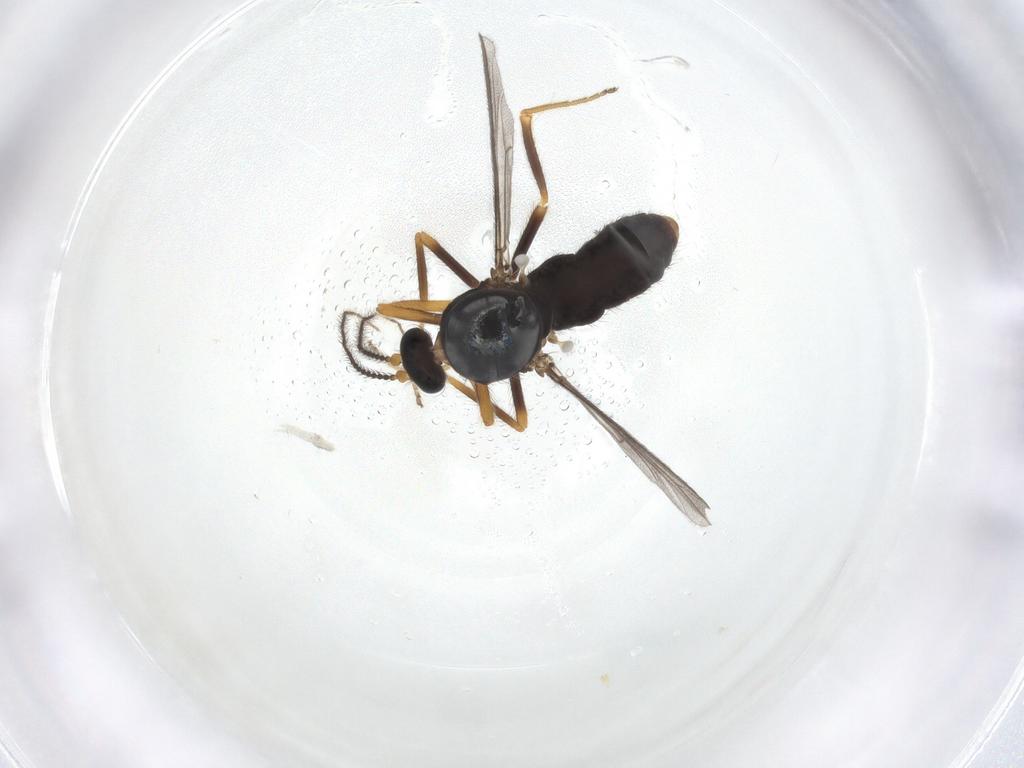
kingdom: Animalia
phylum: Arthropoda
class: Insecta
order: Diptera
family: Ceratopogonidae
